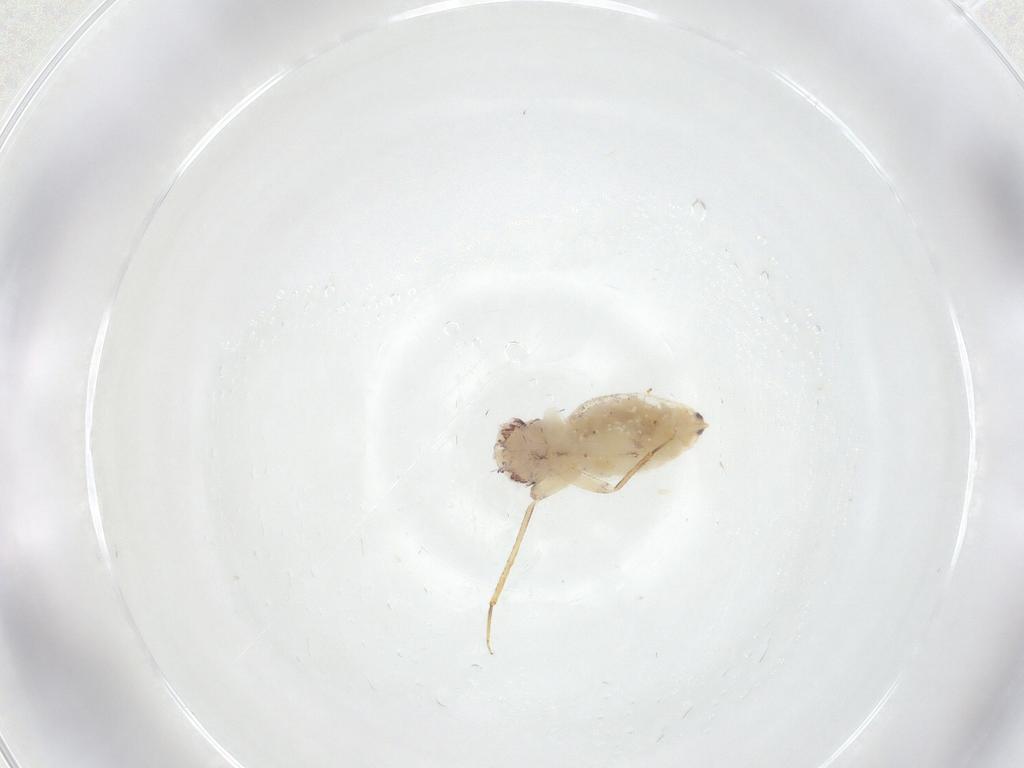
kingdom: Animalia
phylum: Arthropoda
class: Insecta
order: Psocodea
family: Lepidopsocidae
